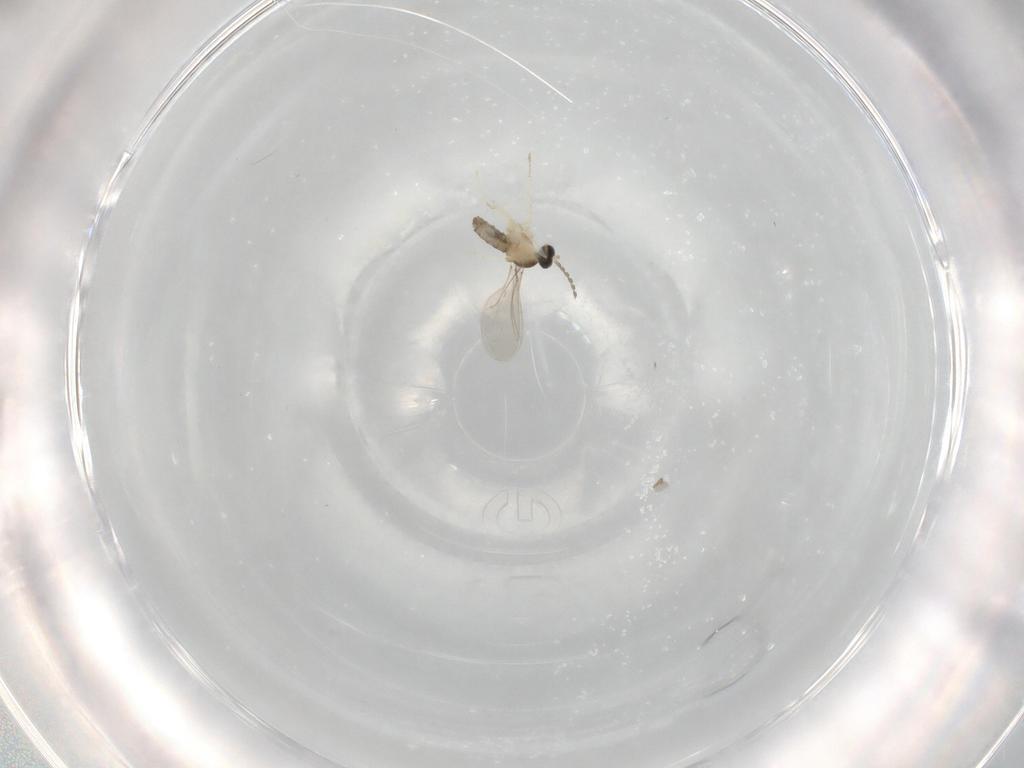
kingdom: Animalia
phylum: Arthropoda
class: Insecta
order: Diptera
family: Cecidomyiidae
